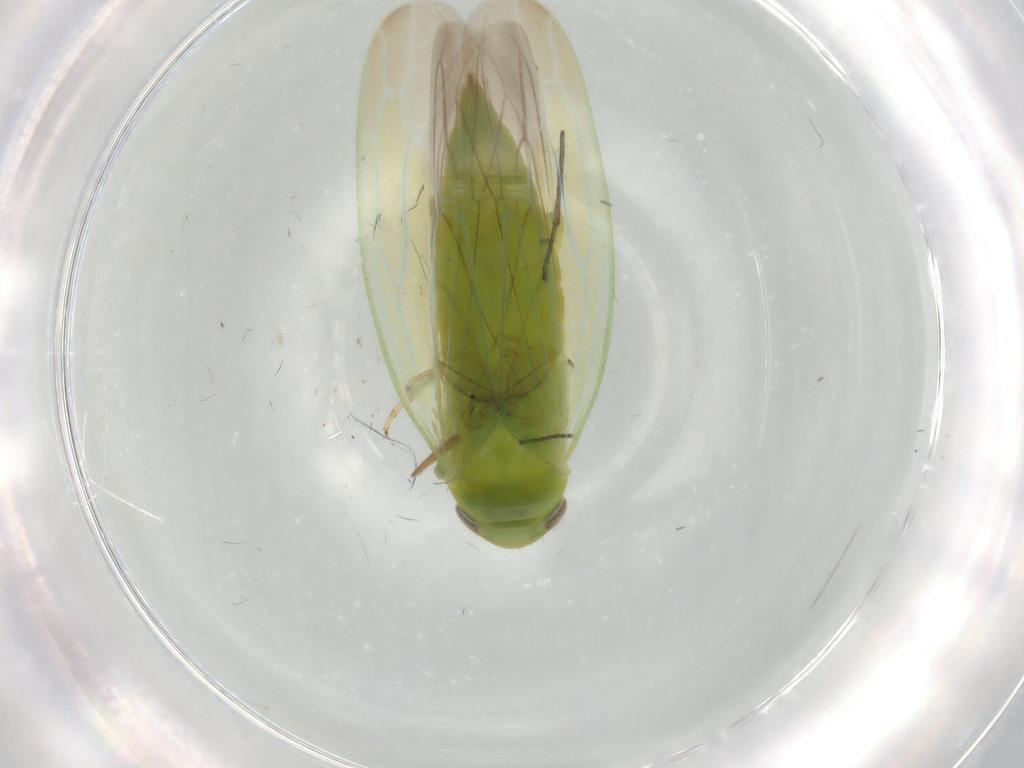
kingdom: Animalia
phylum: Arthropoda
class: Insecta
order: Hemiptera
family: Cicadellidae
